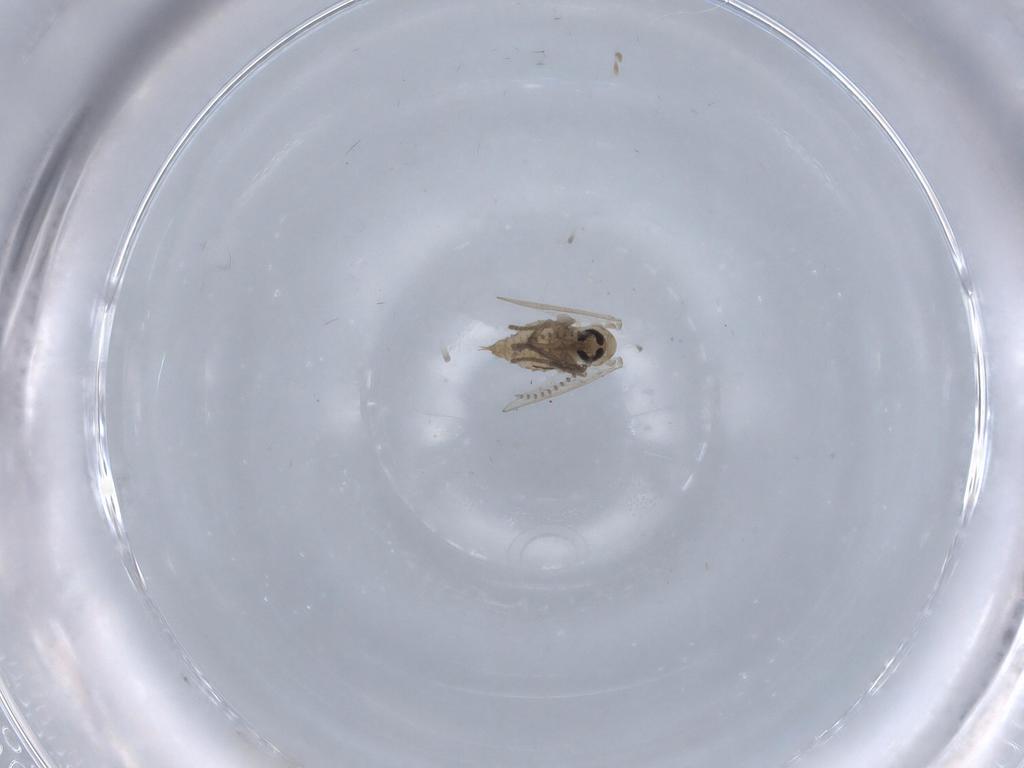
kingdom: Animalia
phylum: Arthropoda
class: Insecta
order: Diptera
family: Psychodidae
